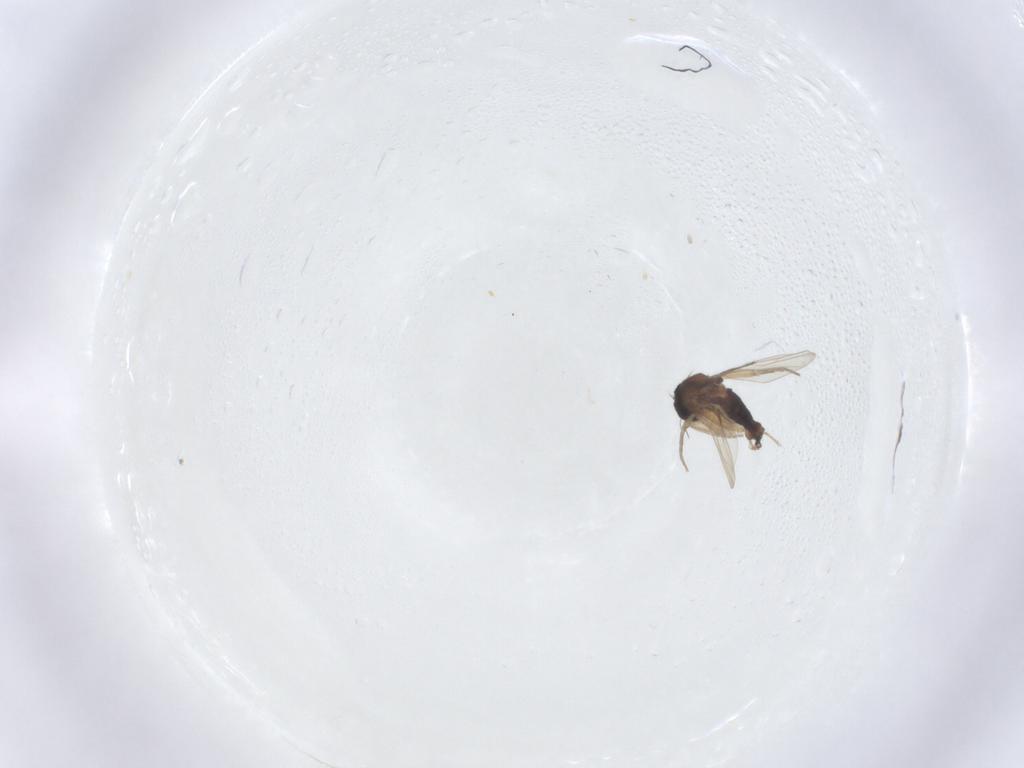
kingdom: Animalia
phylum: Arthropoda
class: Insecta
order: Diptera
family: Phoridae
